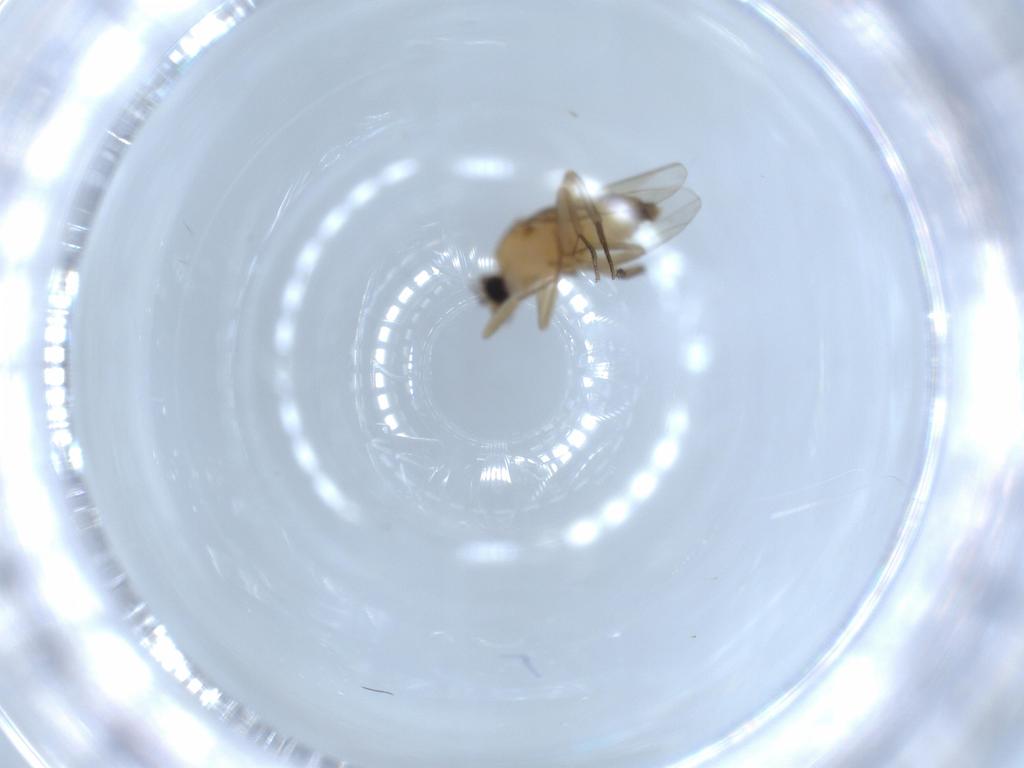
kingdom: Animalia
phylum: Arthropoda
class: Insecta
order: Diptera
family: Phoridae
